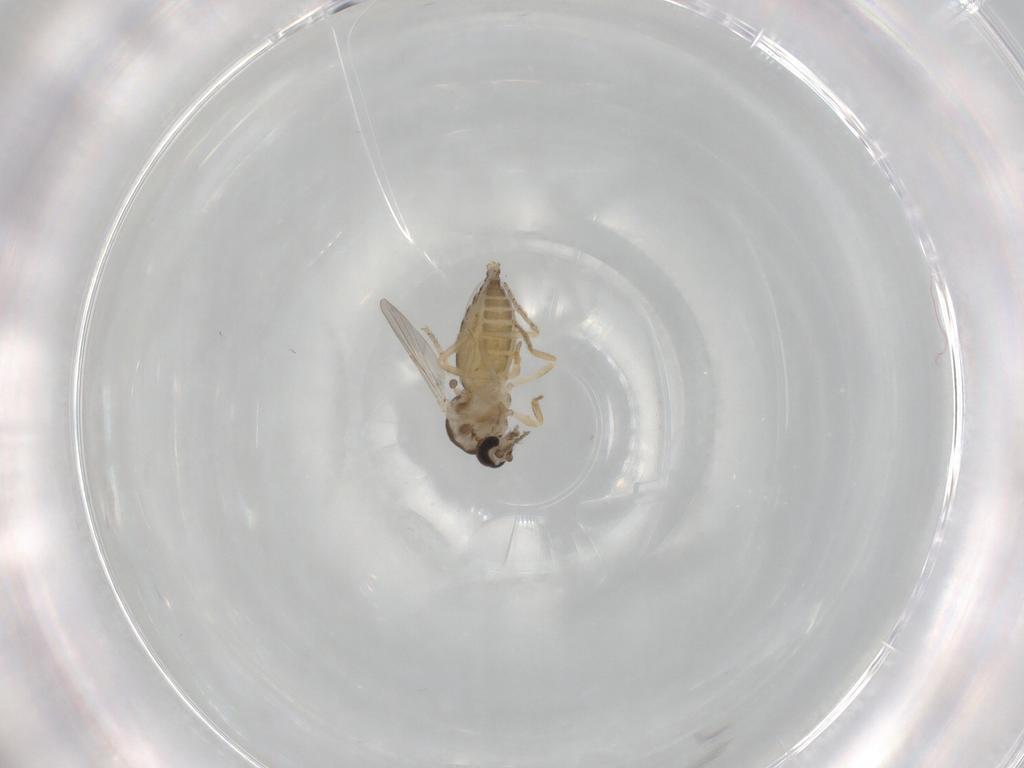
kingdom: Animalia
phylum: Arthropoda
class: Insecta
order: Diptera
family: Ceratopogonidae
